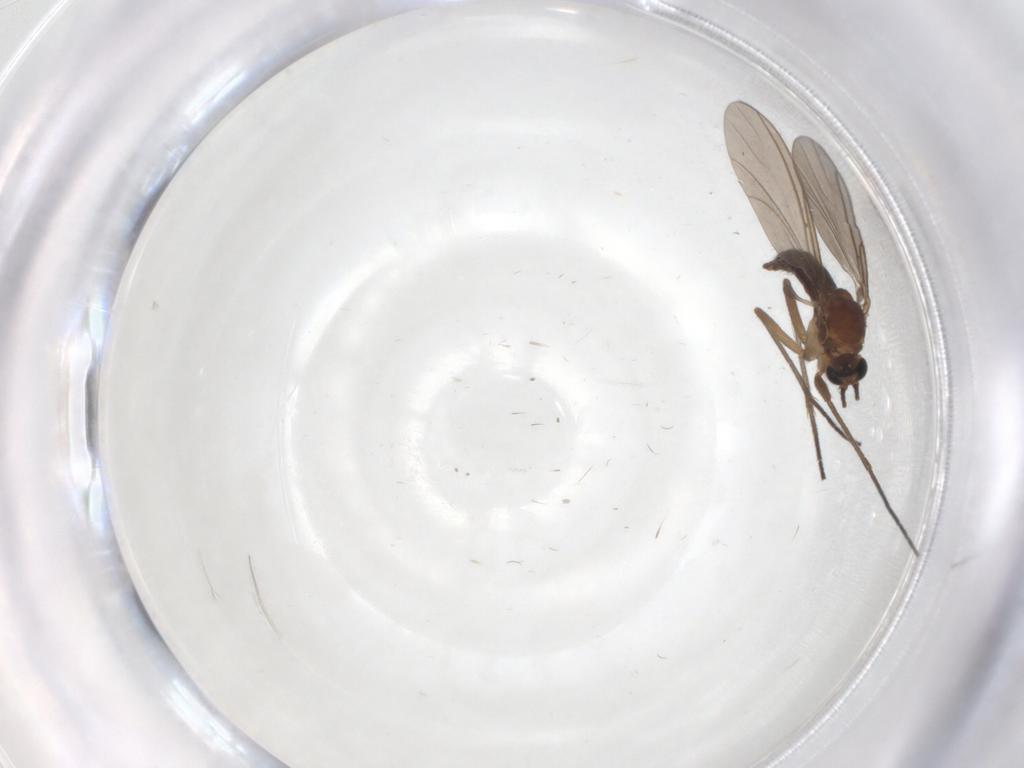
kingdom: Animalia
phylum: Arthropoda
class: Insecta
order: Diptera
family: Sciaridae
